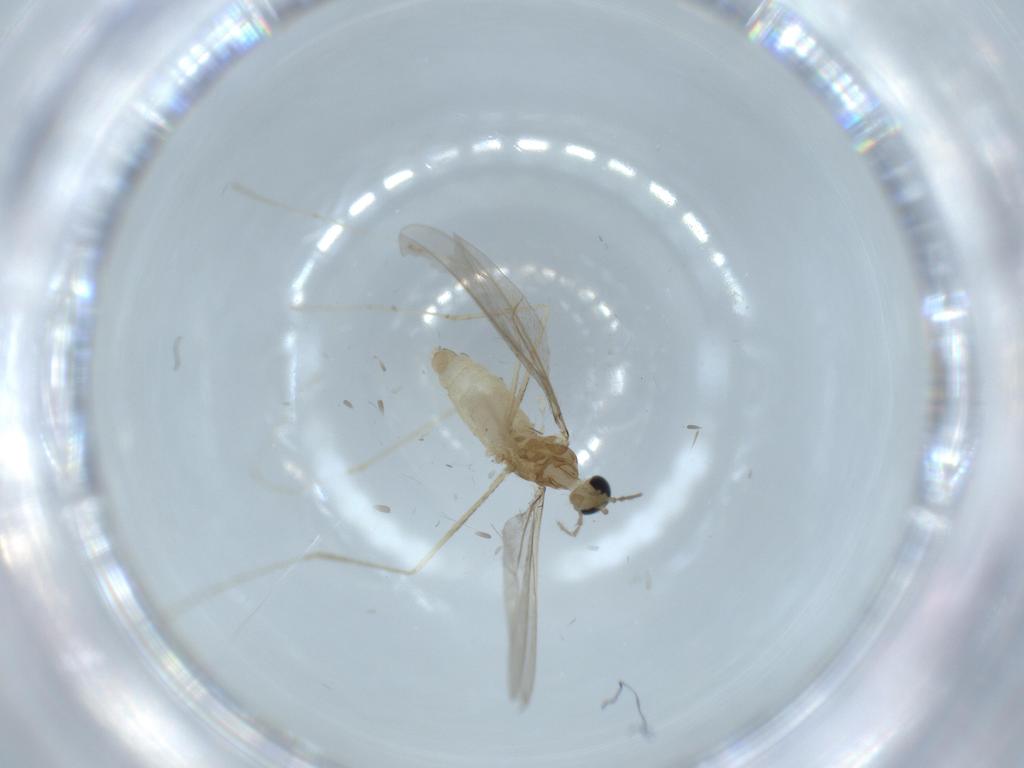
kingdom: Animalia
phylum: Arthropoda
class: Insecta
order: Diptera
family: Cecidomyiidae
